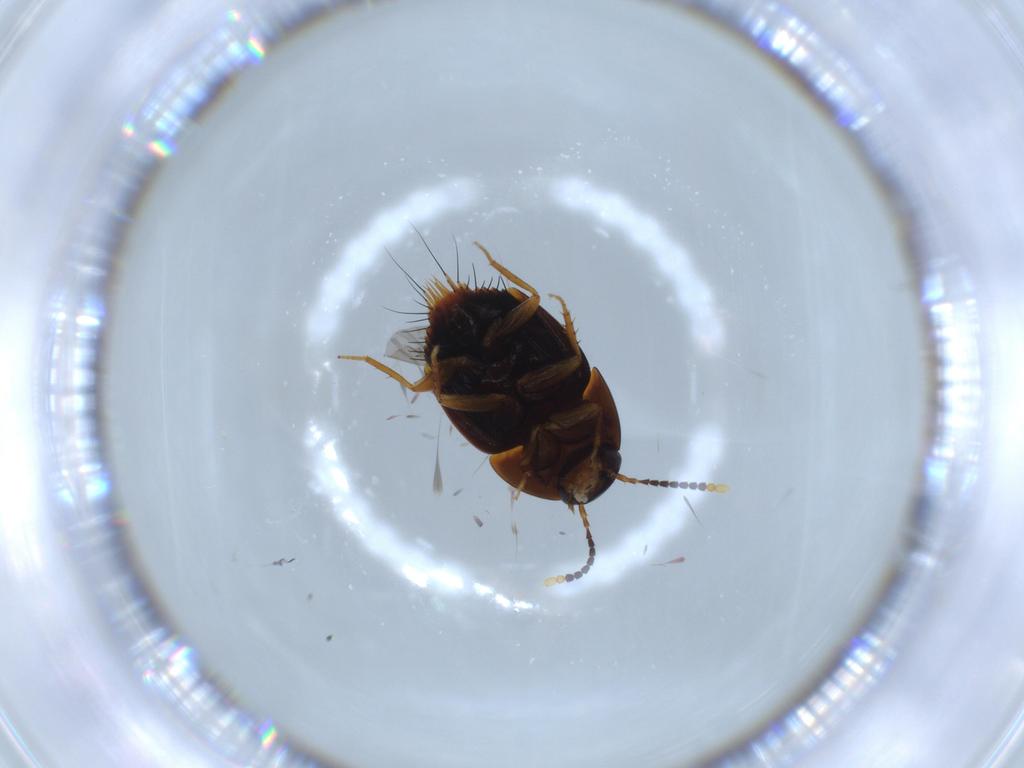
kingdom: Animalia
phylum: Arthropoda
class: Insecta
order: Coleoptera
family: Staphylinidae
